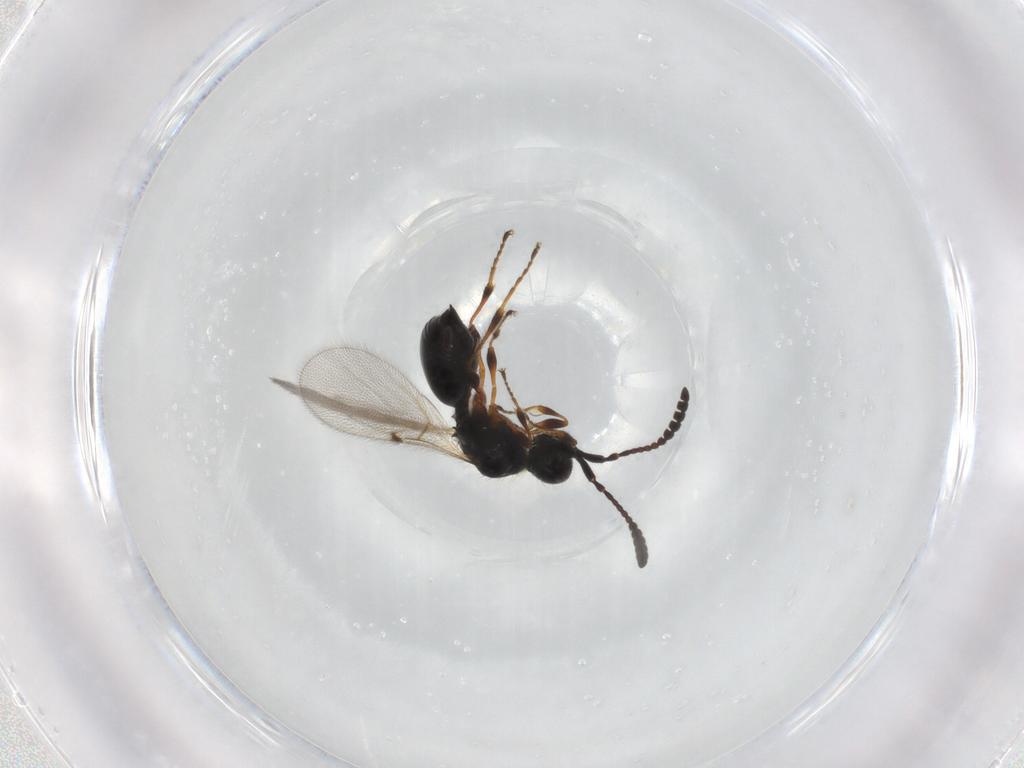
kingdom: Animalia
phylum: Arthropoda
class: Insecta
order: Hymenoptera
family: Diapriidae
